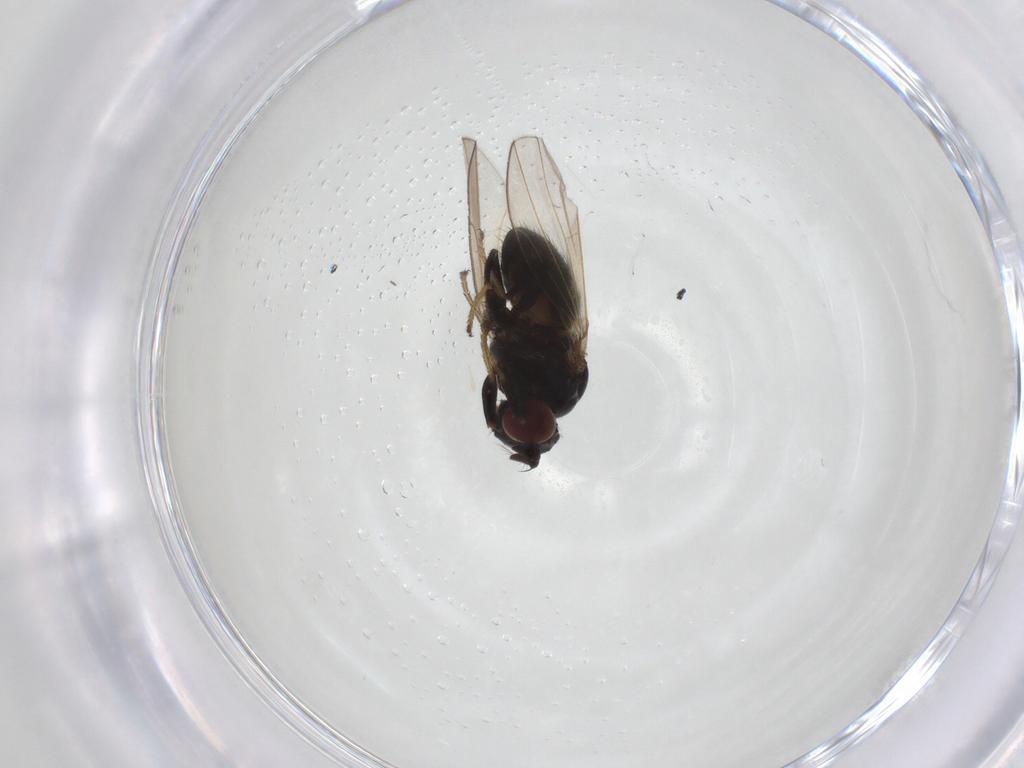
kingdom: Animalia
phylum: Arthropoda
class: Insecta
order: Diptera
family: Ephydridae
